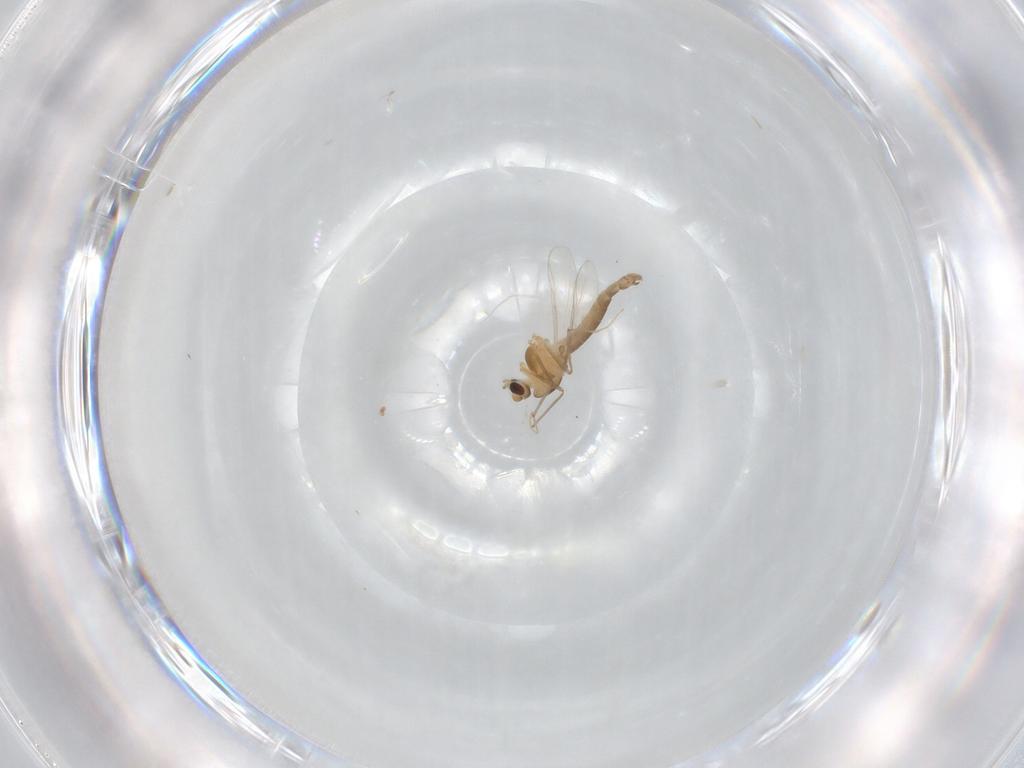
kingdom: Animalia
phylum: Arthropoda
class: Insecta
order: Diptera
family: Chironomidae
